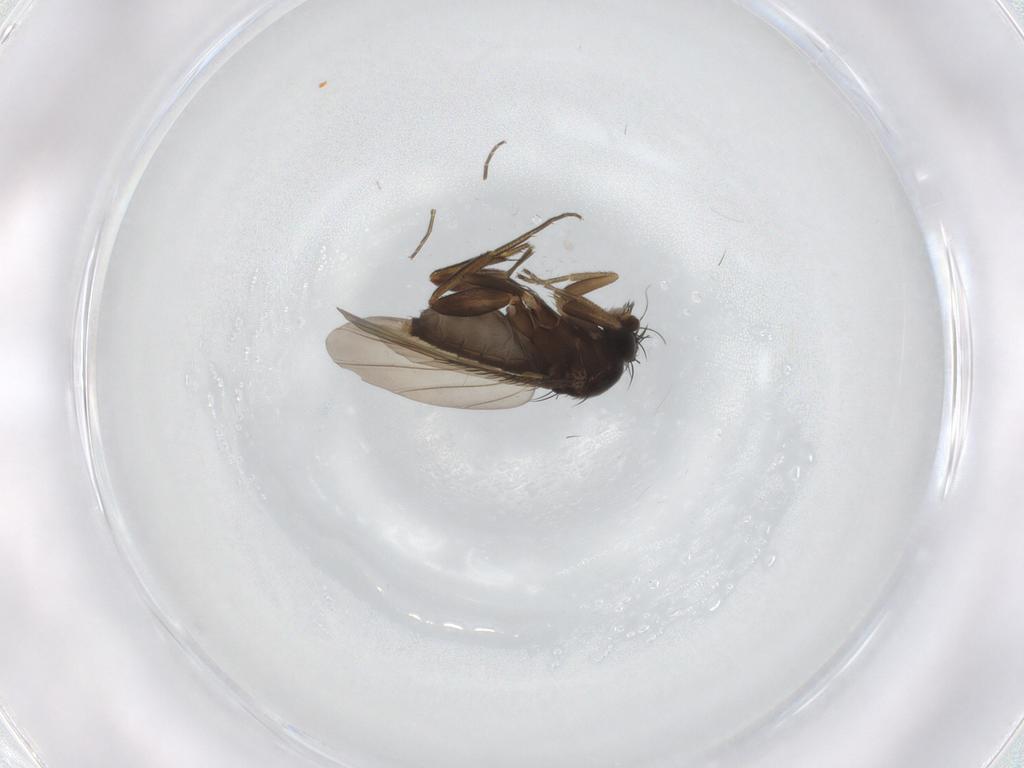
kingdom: Animalia
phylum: Arthropoda
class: Insecta
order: Diptera
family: Phoridae
